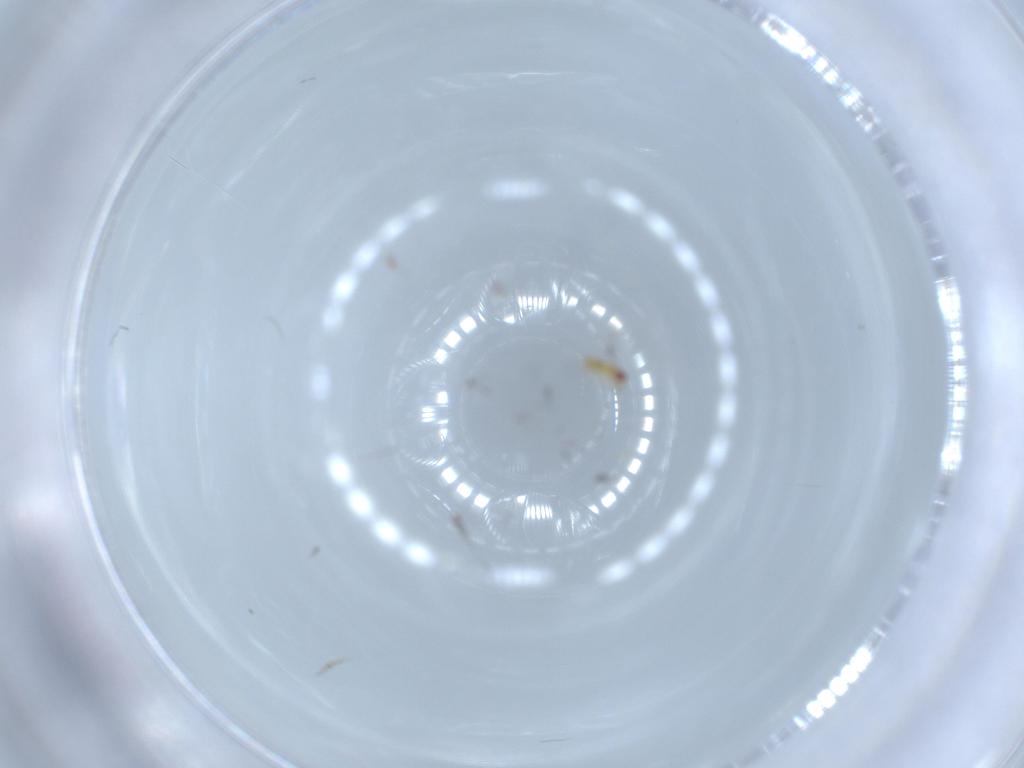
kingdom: Animalia
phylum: Arthropoda
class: Insecta
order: Hymenoptera
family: Trichogrammatidae
